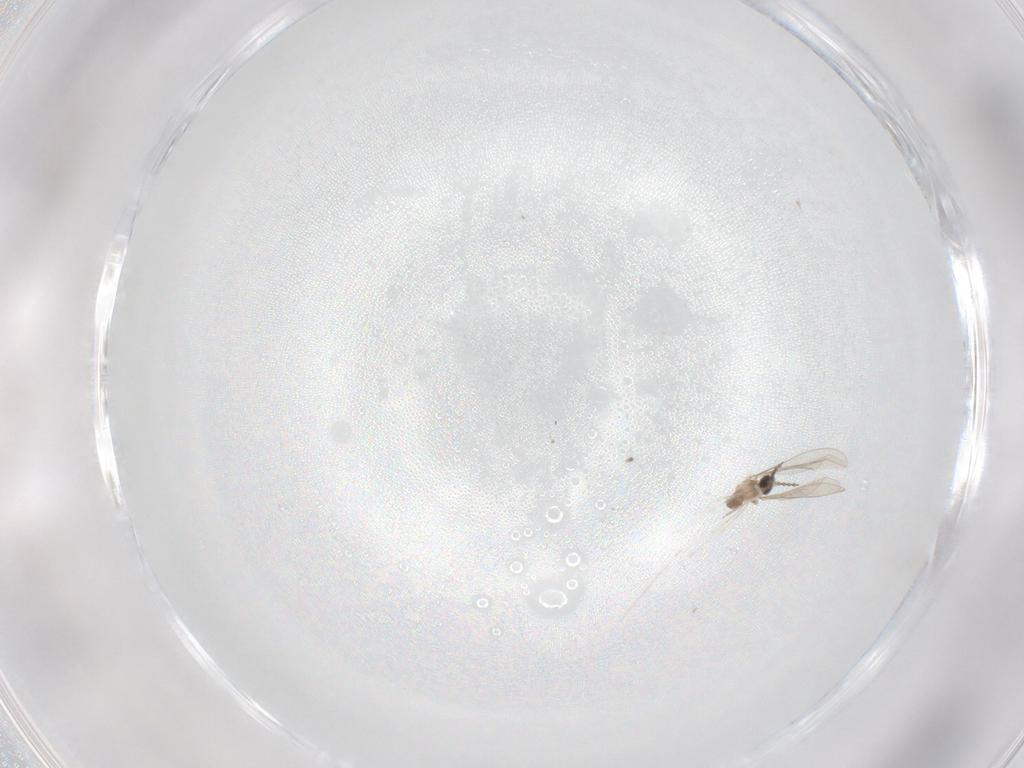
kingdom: Animalia
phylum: Arthropoda
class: Insecta
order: Diptera
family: Cecidomyiidae
